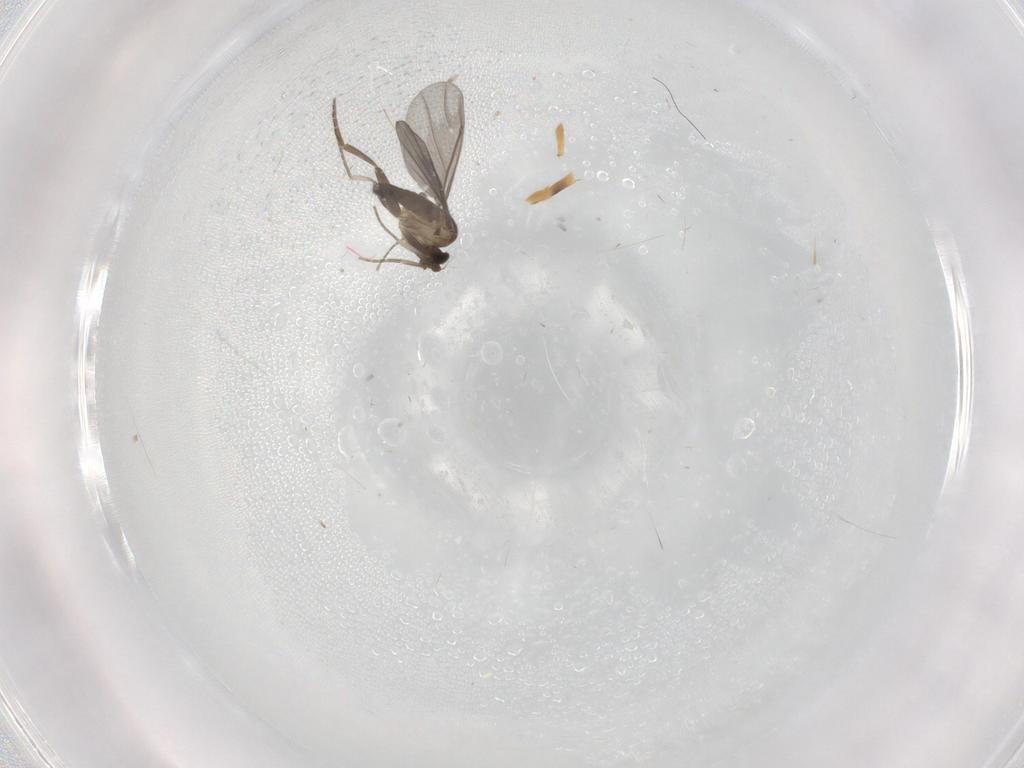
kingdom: Animalia
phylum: Arthropoda
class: Insecta
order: Diptera
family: Phoridae
